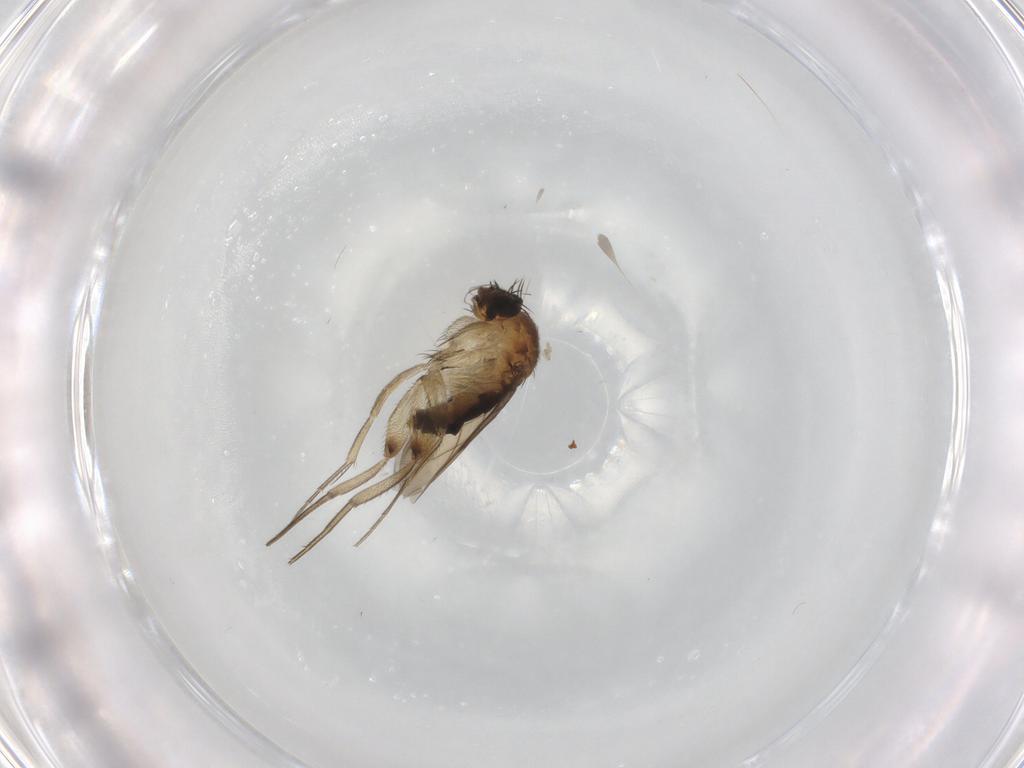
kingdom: Animalia
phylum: Arthropoda
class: Insecta
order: Diptera
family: Phoridae
